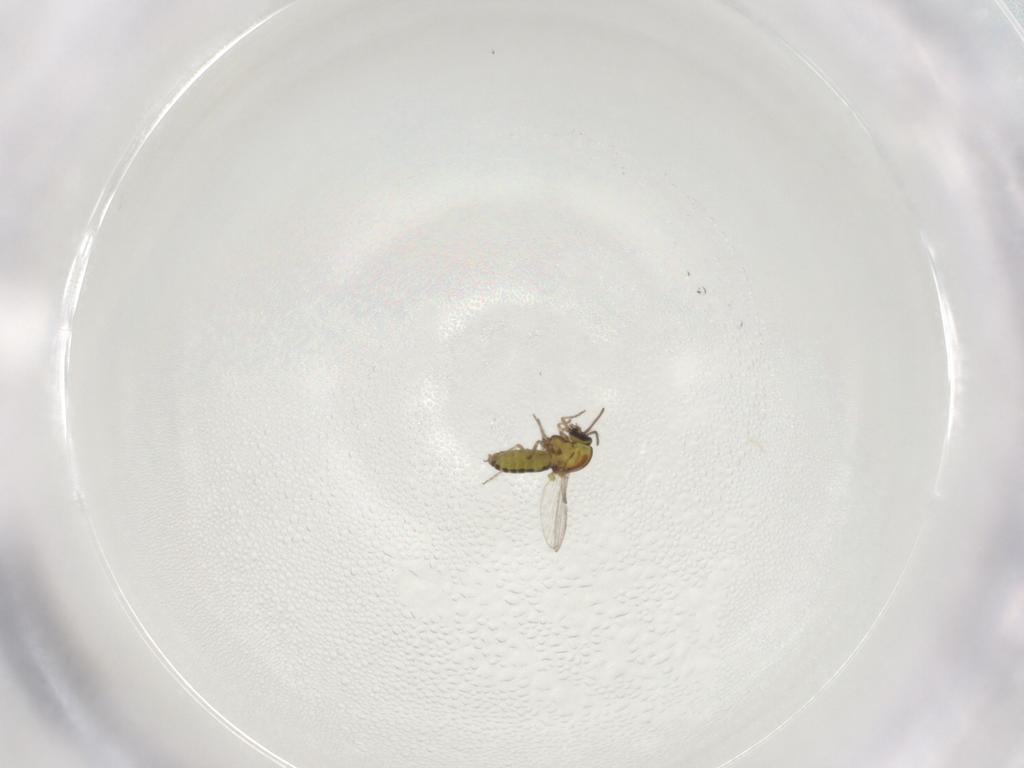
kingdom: Animalia
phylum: Arthropoda
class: Insecta
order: Diptera
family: Ceratopogonidae
